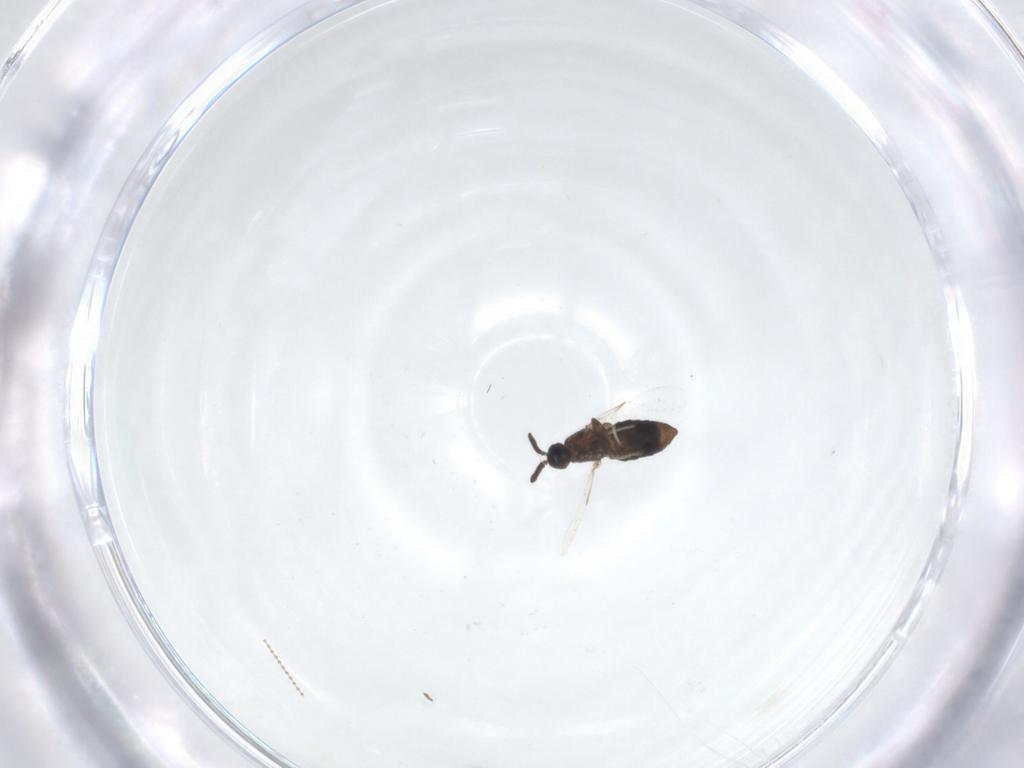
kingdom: Animalia
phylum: Arthropoda
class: Insecta
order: Diptera
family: Scatopsidae
